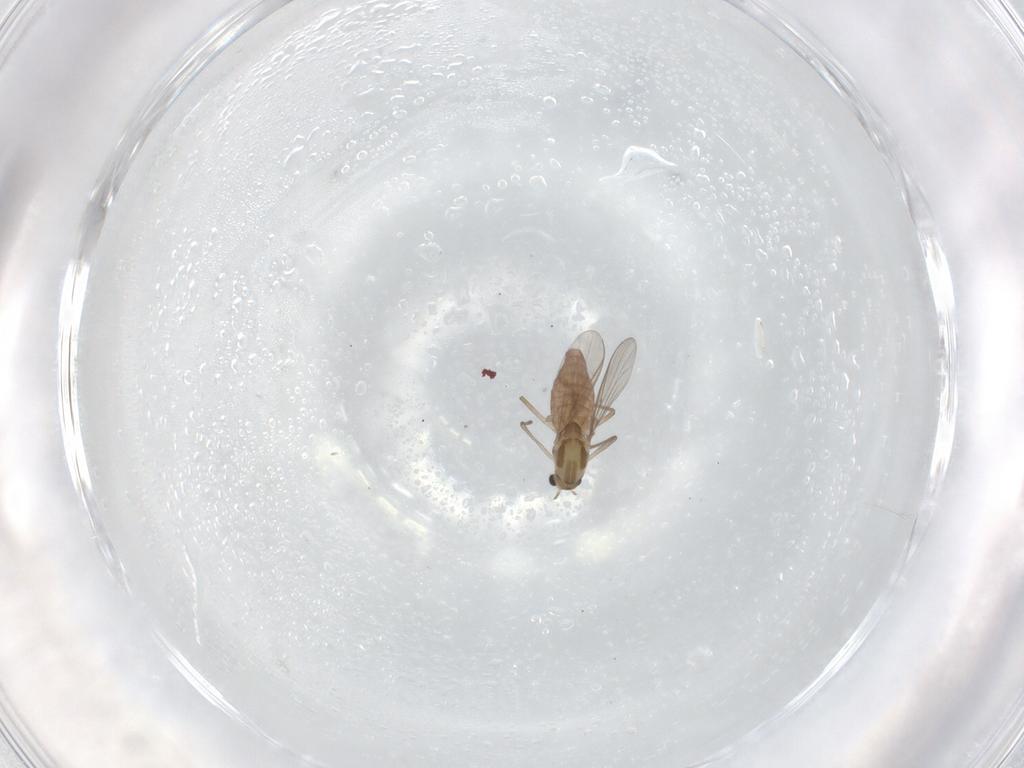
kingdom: Animalia
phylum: Arthropoda
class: Insecta
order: Diptera
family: Chironomidae
